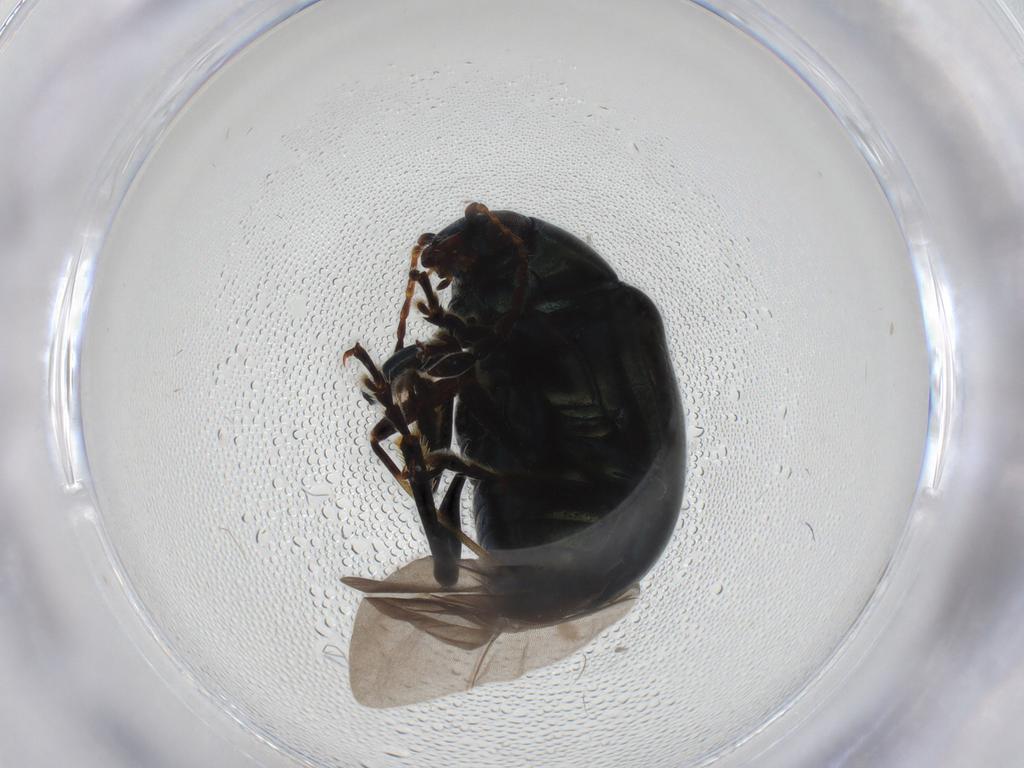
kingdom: Animalia
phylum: Arthropoda
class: Insecta
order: Coleoptera
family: Chrysomelidae
